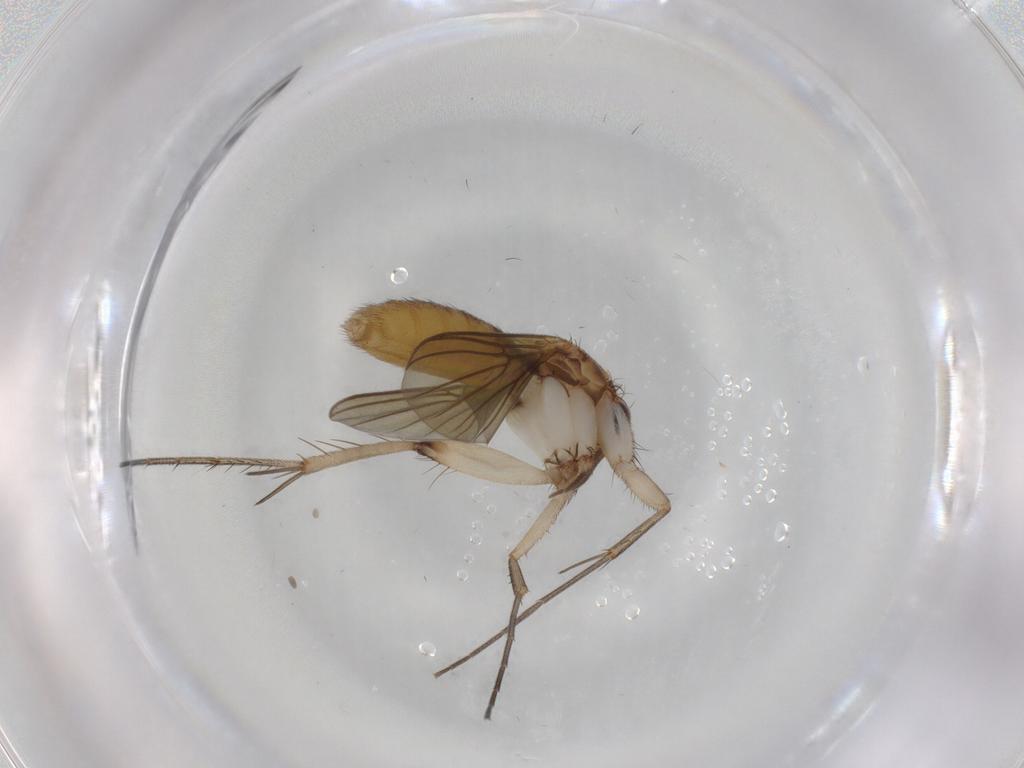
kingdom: Animalia
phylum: Arthropoda
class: Insecta
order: Diptera
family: Psychodidae
